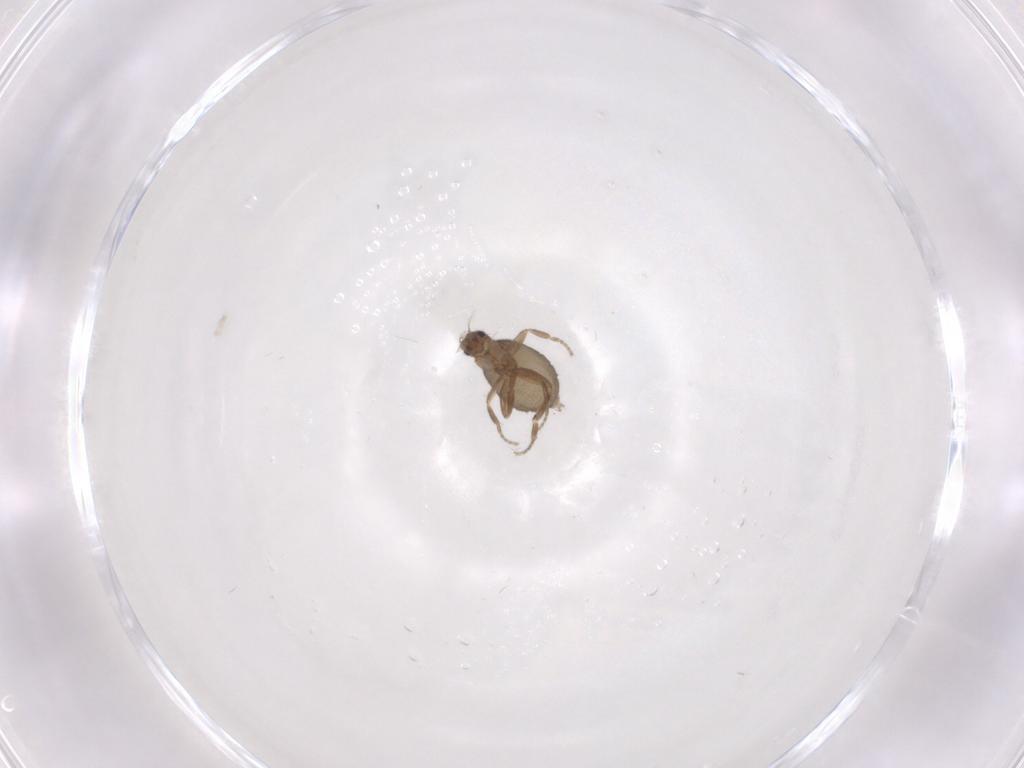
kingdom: Animalia
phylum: Arthropoda
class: Insecta
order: Diptera
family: Phoridae
